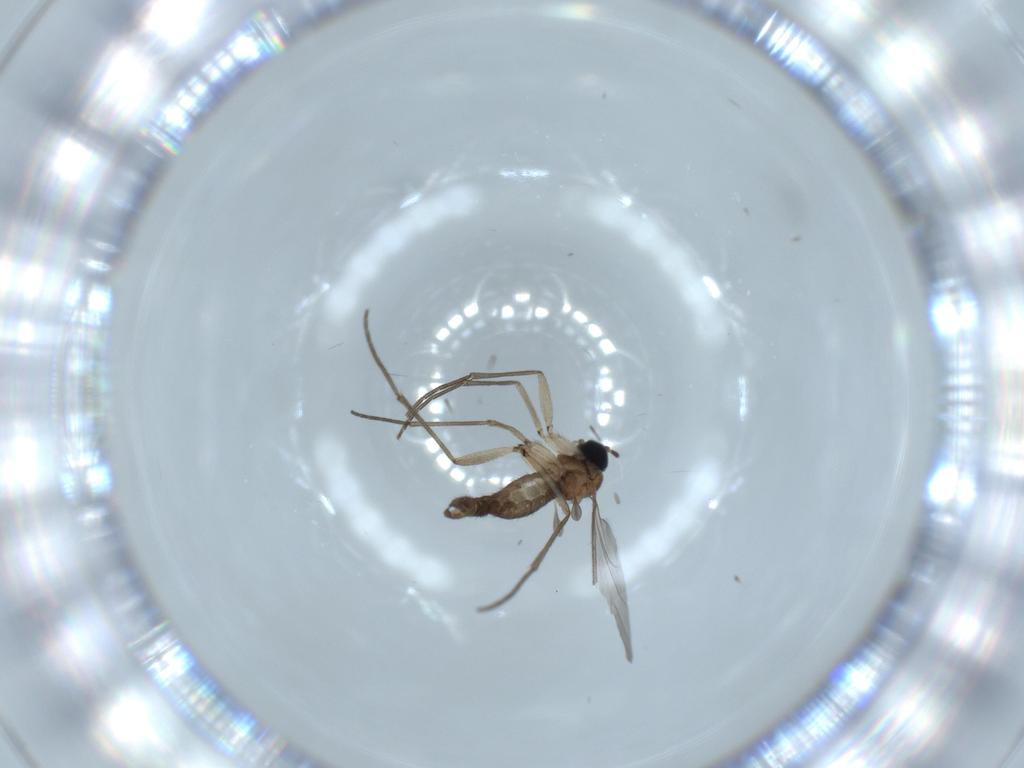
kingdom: Animalia
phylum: Arthropoda
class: Insecta
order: Diptera
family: Sciaridae
